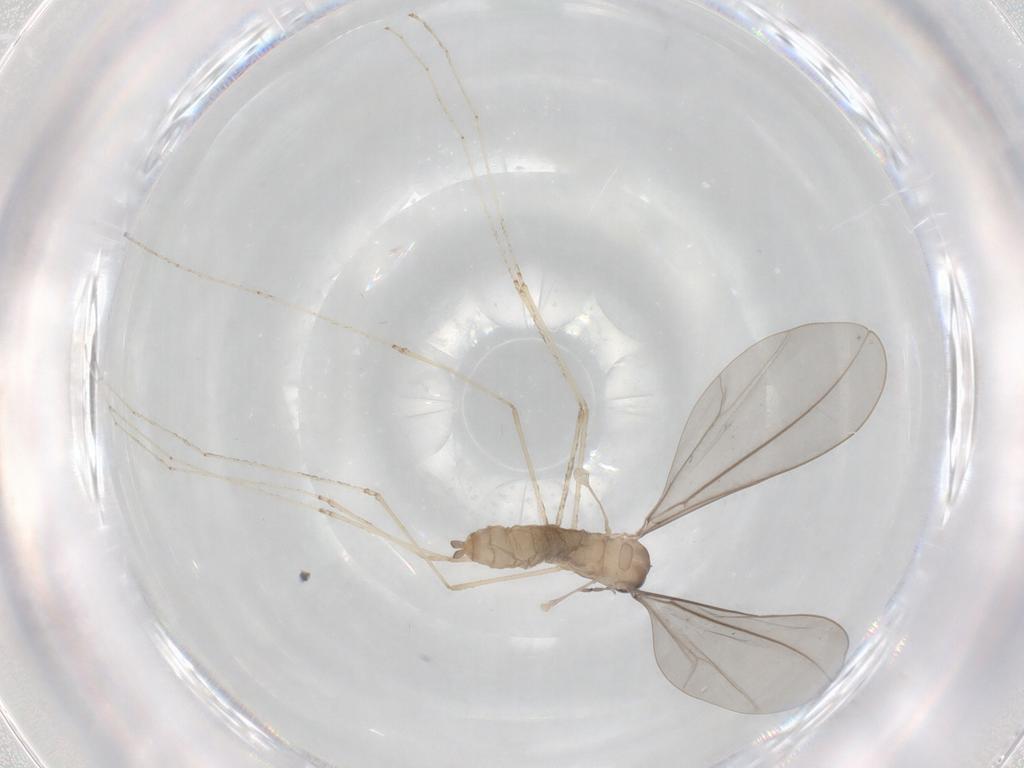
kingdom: Animalia
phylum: Arthropoda
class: Insecta
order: Diptera
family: Cecidomyiidae
